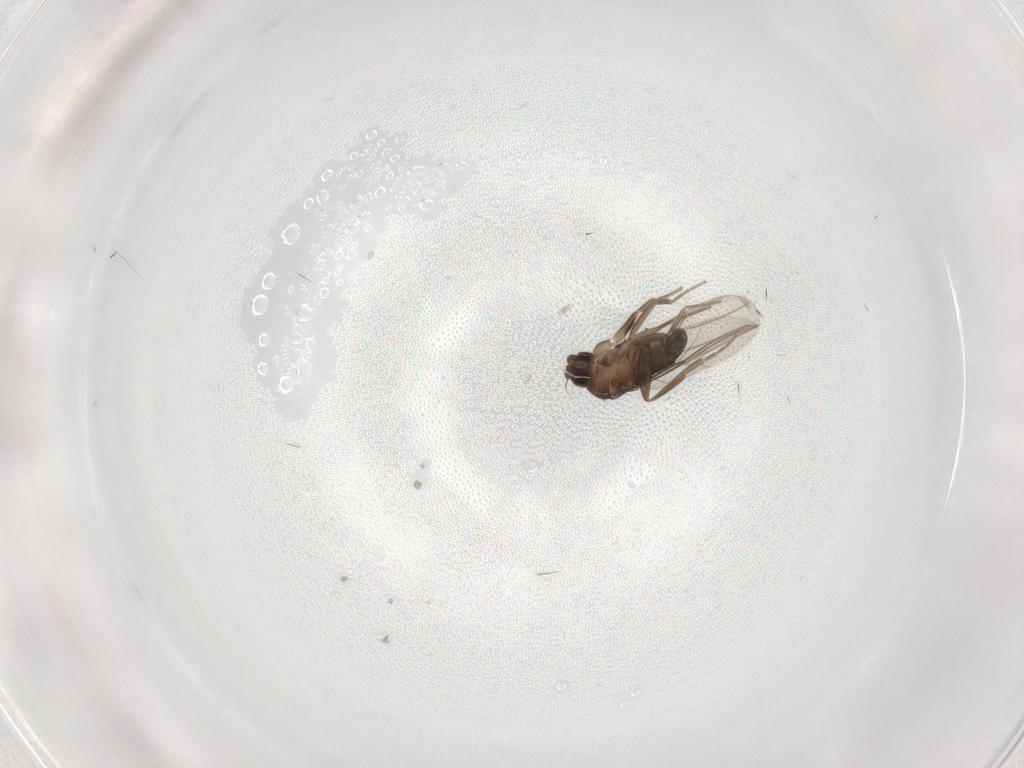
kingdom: Animalia
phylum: Arthropoda
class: Insecta
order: Diptera
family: Phoridae
